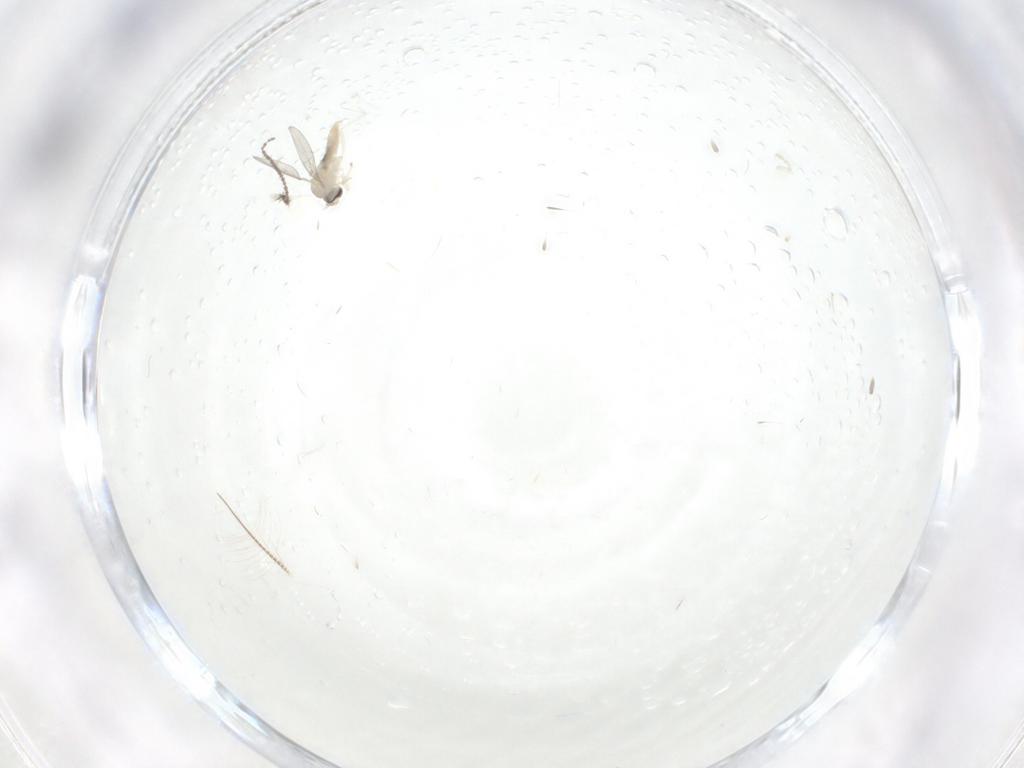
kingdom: Animalia
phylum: Arthropoda
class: Insecta
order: Diptera
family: Cecidomyiidae
